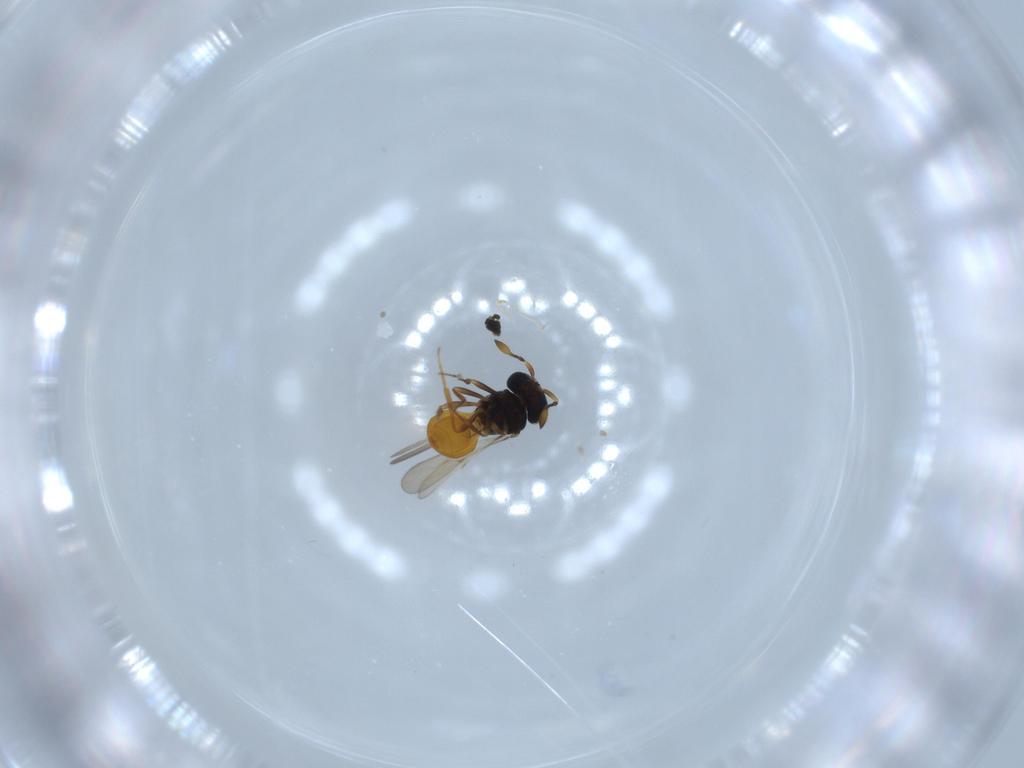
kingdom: Animalia
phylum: Arthropoda
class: Insecta
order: Hymenoptera
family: Scelionidae
